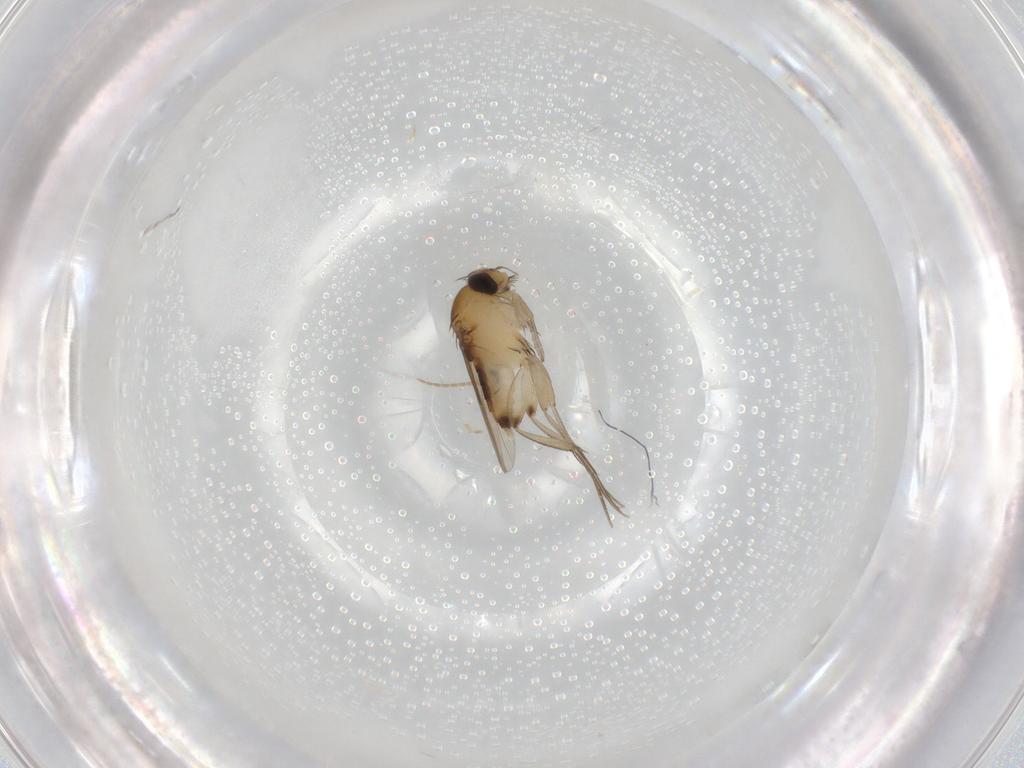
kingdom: Animalia
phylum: Arthropoda
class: Insecta
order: Diptera
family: Phoridae
